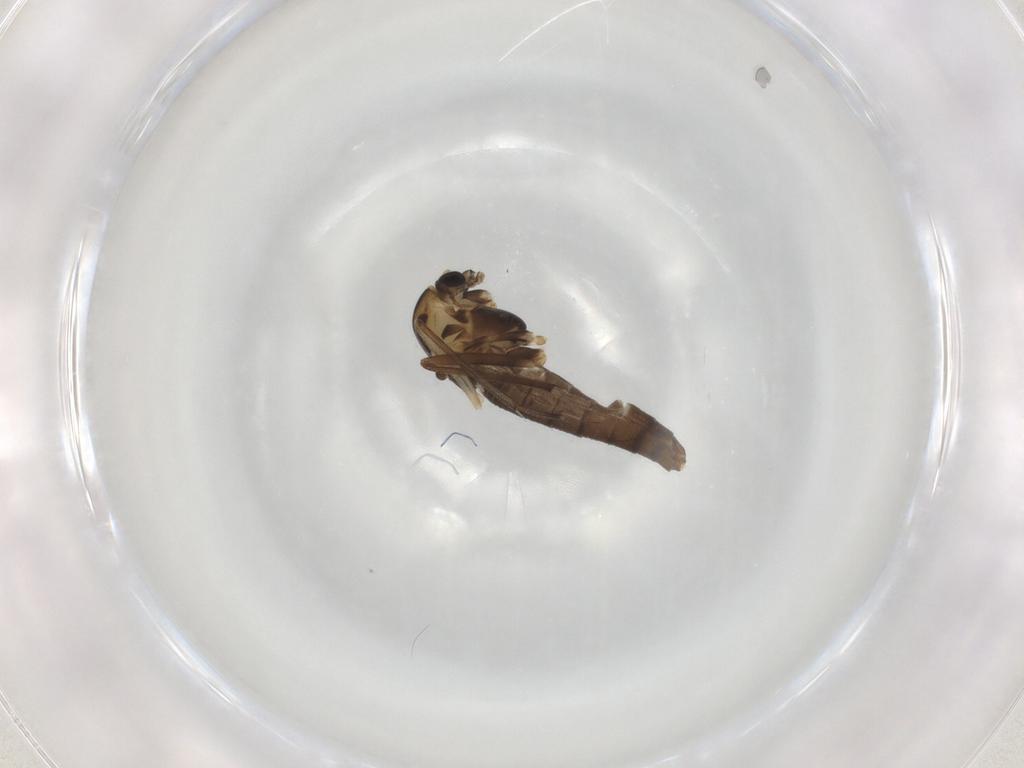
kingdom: Animalia
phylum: Arthropoda
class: Insecta
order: Diptera
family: Chironomidae
